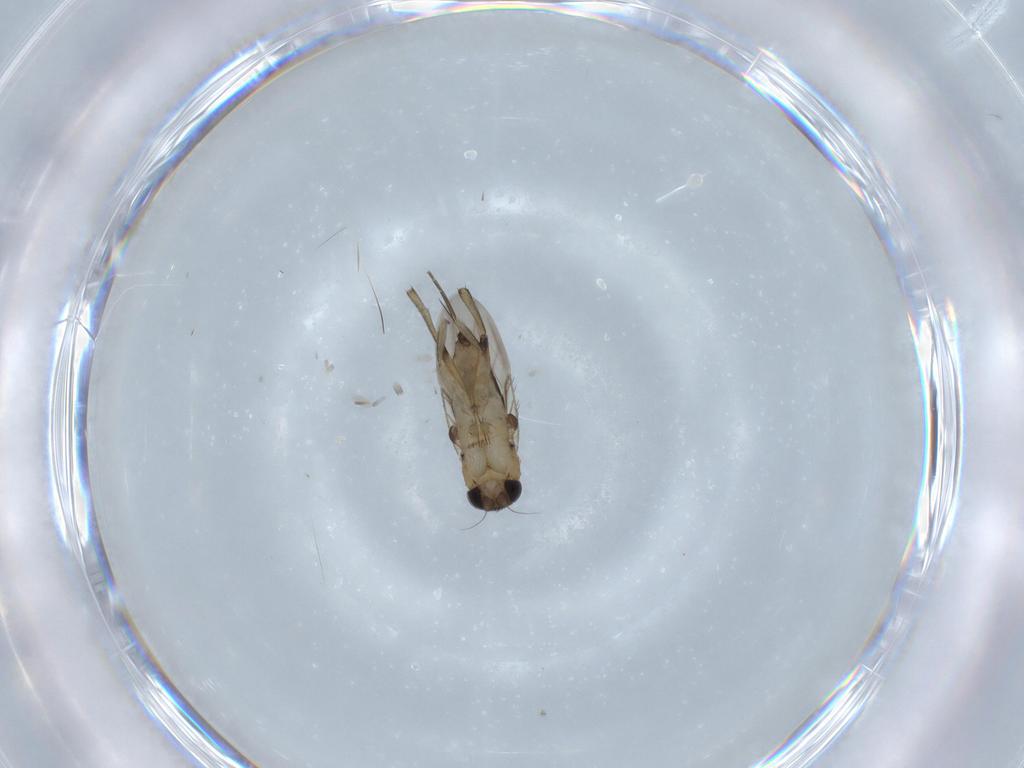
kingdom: Animalia
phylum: Arthropoda
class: Insecta
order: Diptera
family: Phoridae
